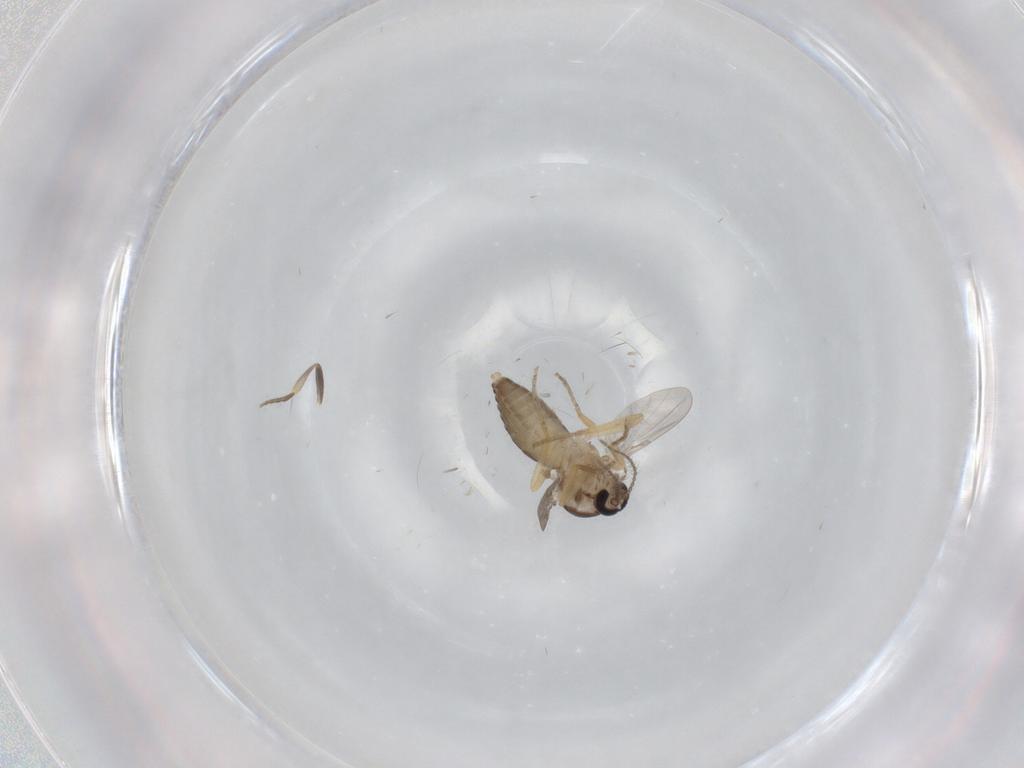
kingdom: Animalia
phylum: Arthropoda
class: Insecta
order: Diptera
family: Ceratopogonidae
